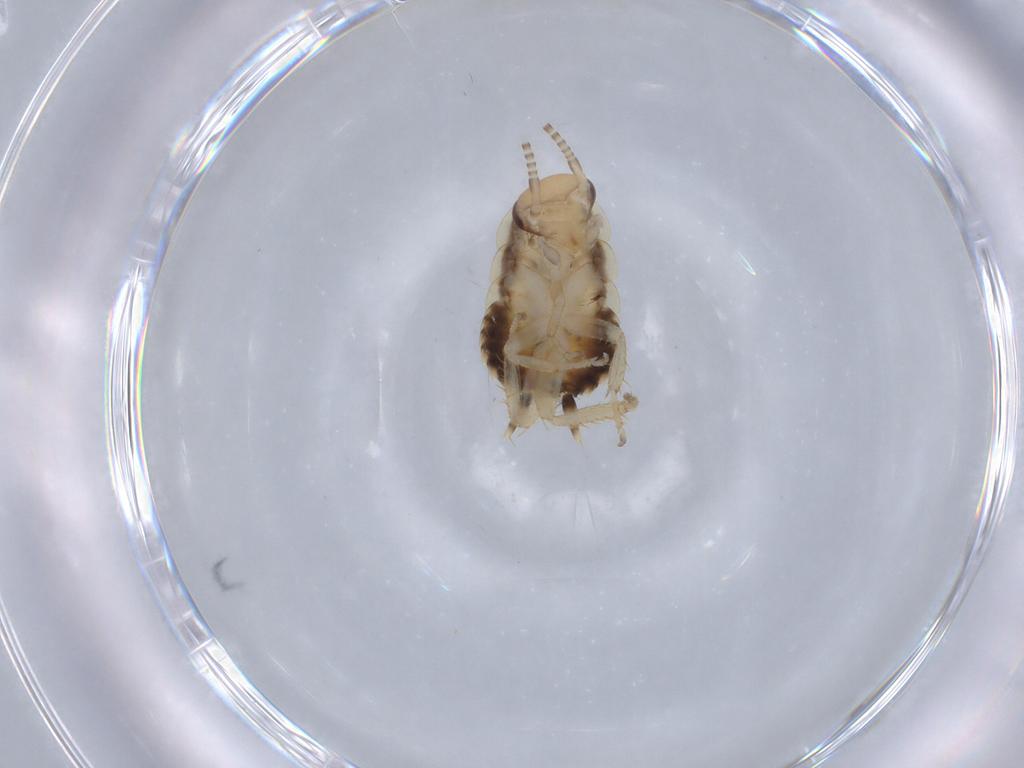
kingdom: Animalia
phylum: Arthropoda
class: Insecta
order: Blattodea
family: Ectobiidae
